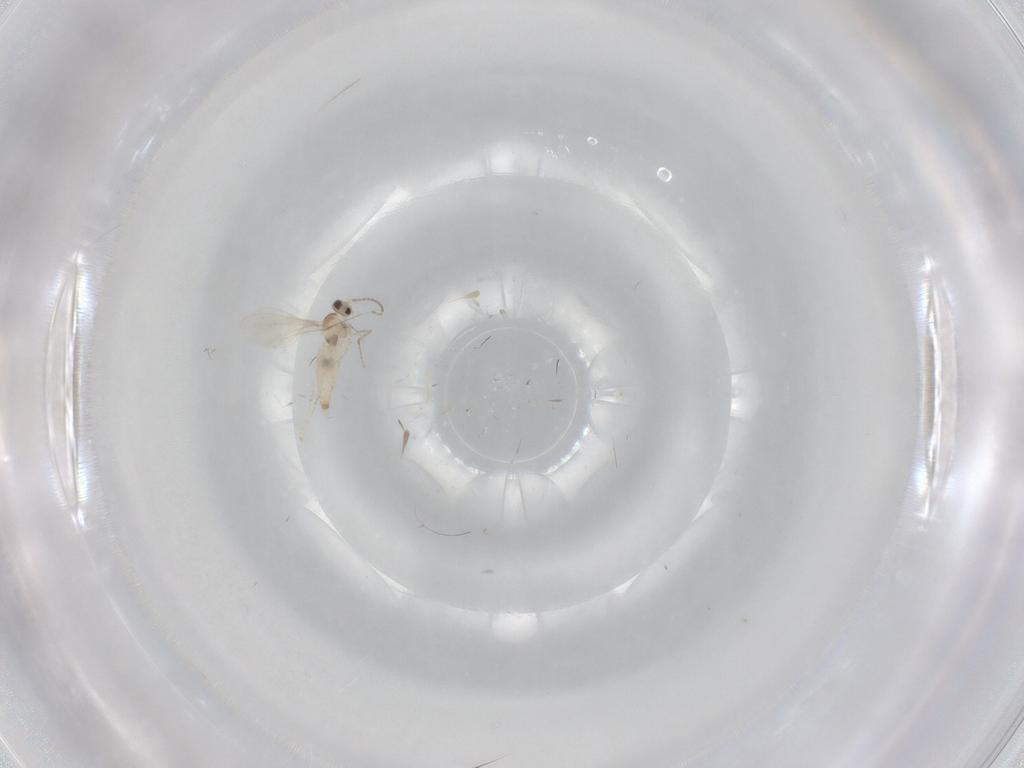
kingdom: Animalia
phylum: Arthropoda
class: Insecta
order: Diptera
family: Cecidomyiidae
